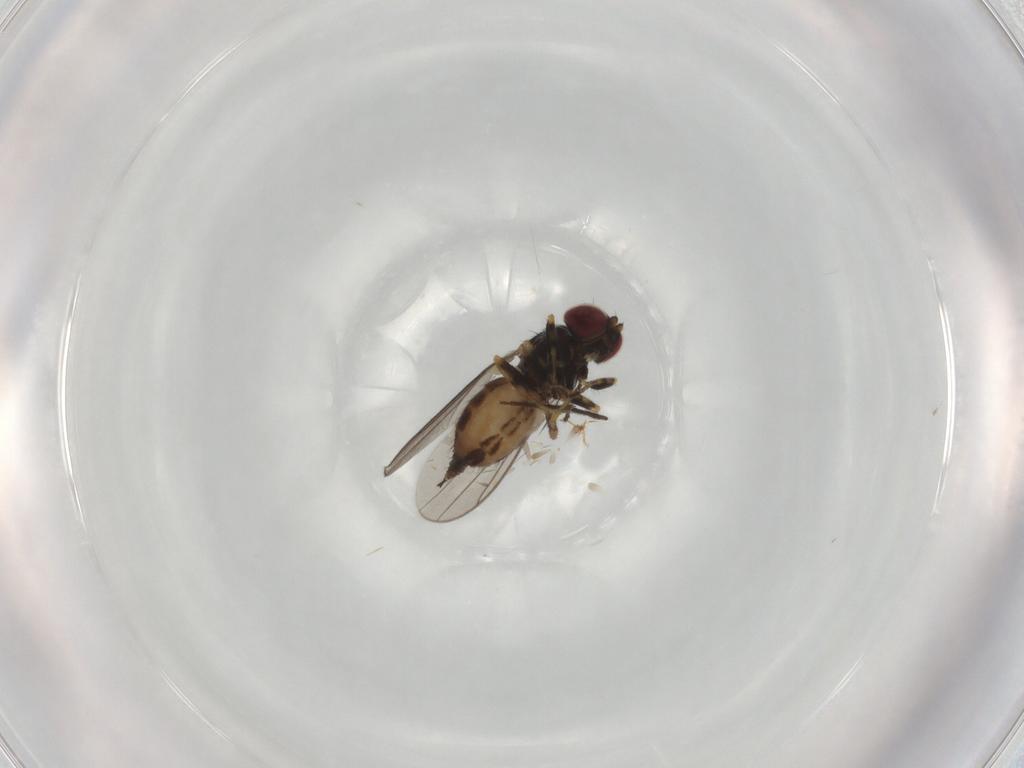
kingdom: Animalia
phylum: Arthropoda
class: Insecta
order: Diptera
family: Chloropidae
